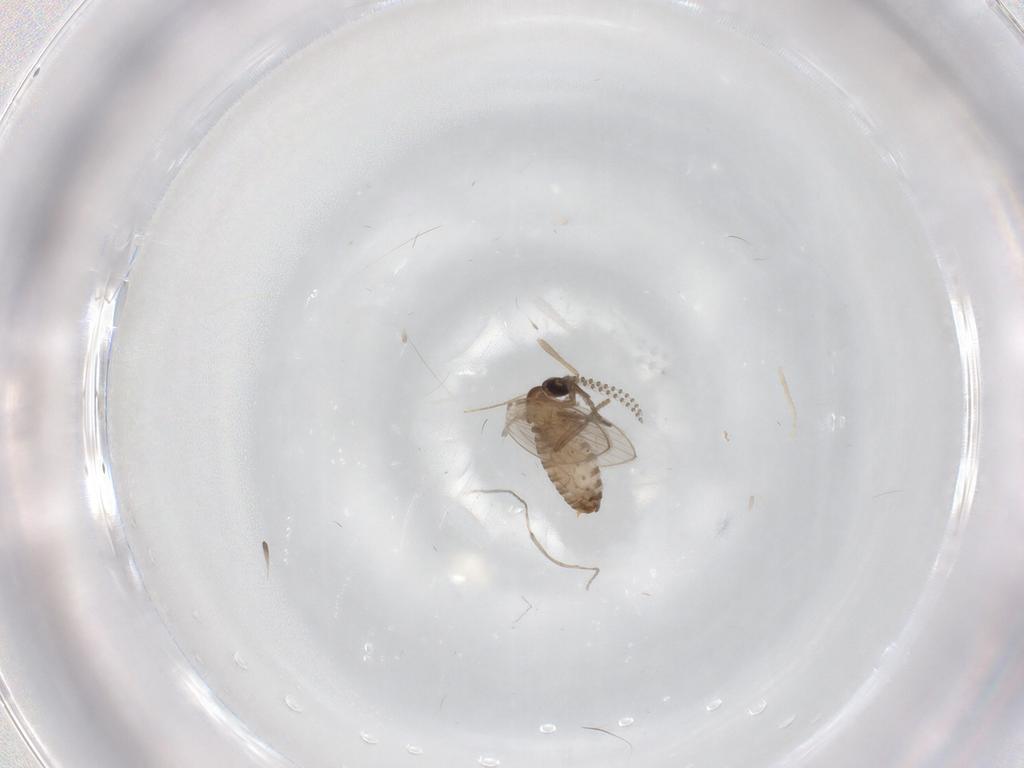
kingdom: Animalia
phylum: Arthropoda
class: Insecta
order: Diptera
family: Chironomidae
